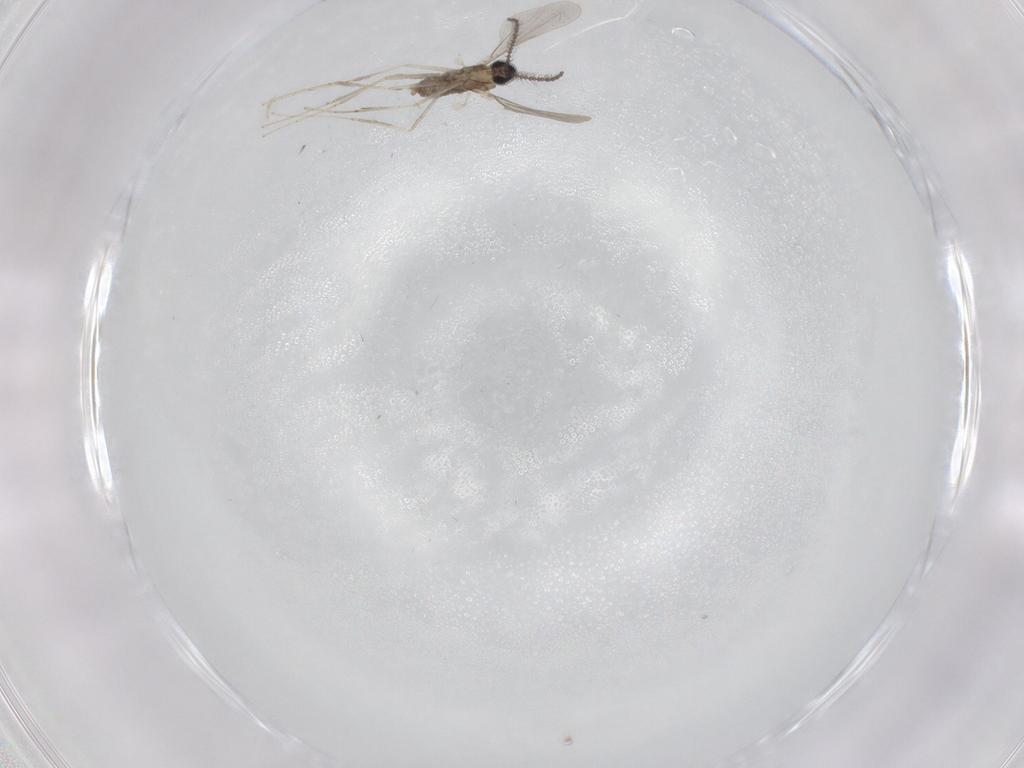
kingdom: Animalia
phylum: Arthropoda
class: Insecta
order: Diptera
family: Cecidomyiidae
